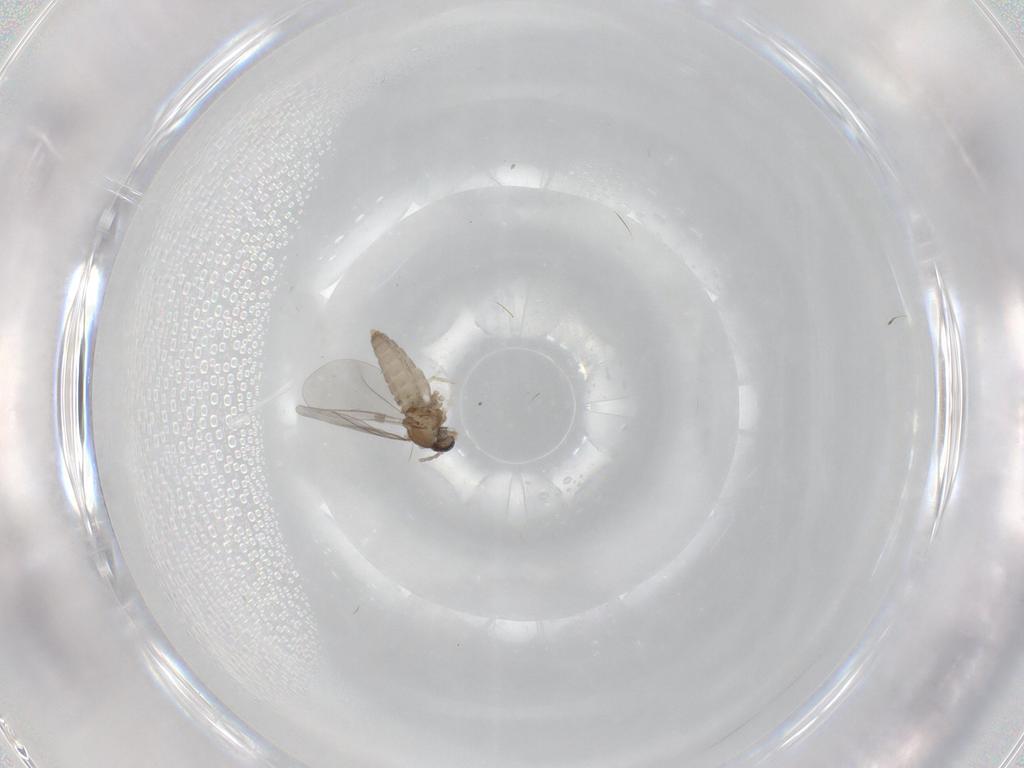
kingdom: Animalia
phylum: Arthropoda
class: Insecta
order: Diptera
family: Cecidomyiidae
